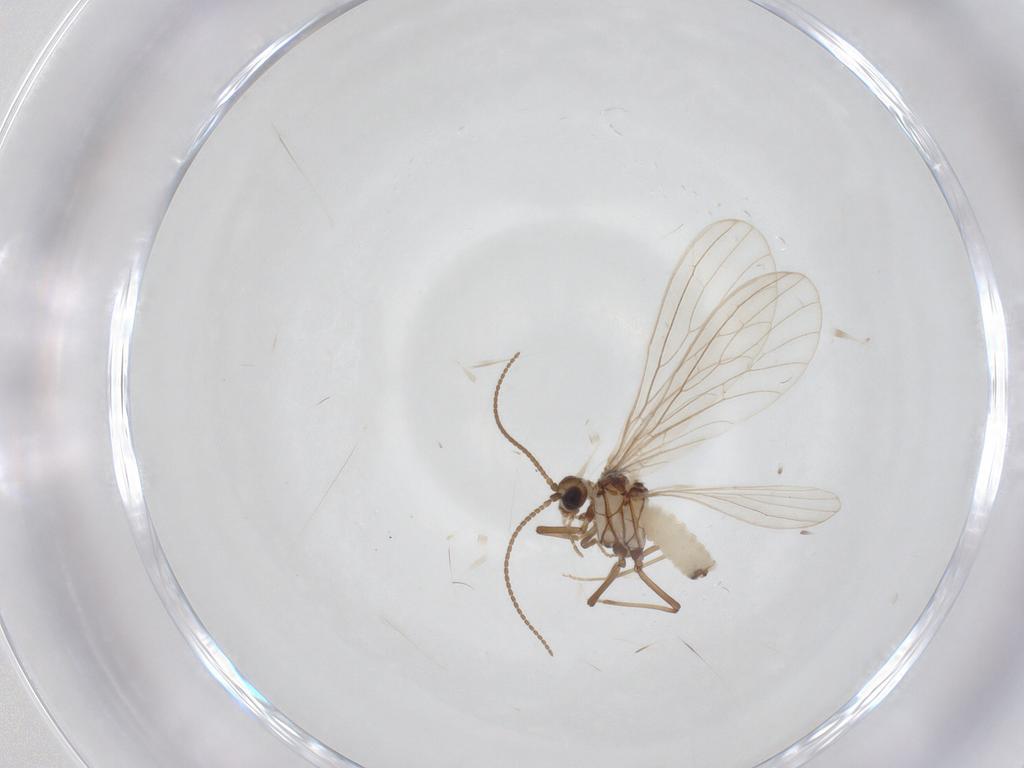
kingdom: Animalia
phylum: Arthropoda
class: Insecta
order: Neuroptera
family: Coniopterygidae
